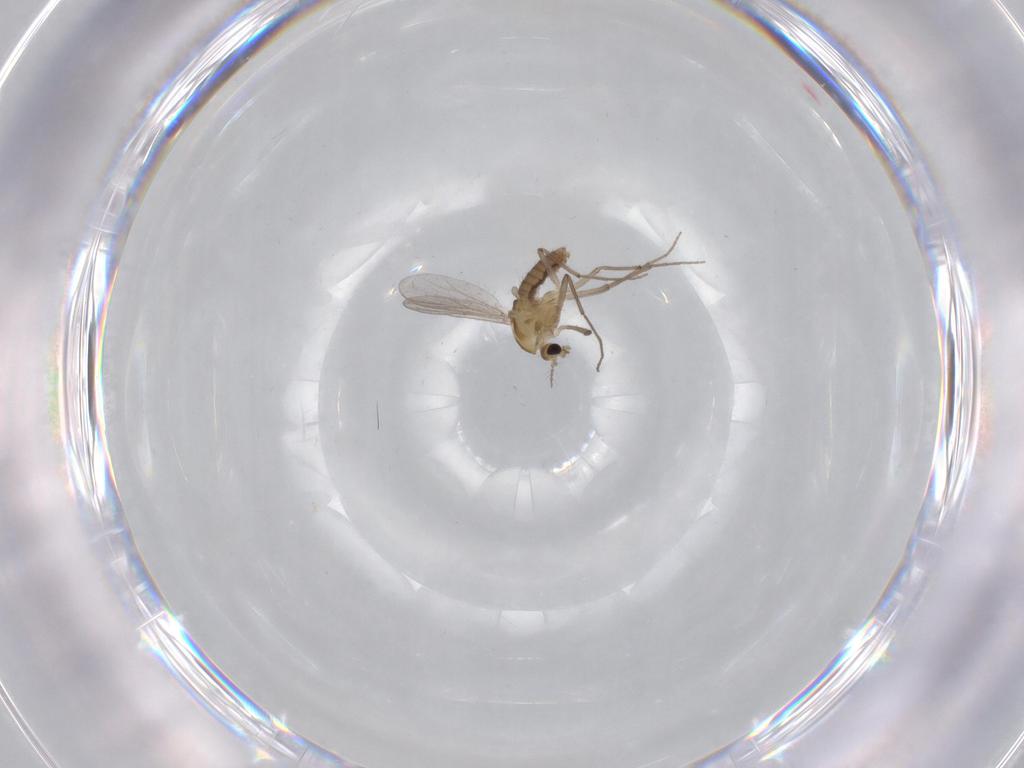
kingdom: Animalia
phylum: Arthropoda
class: Insecta
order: Diptera
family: Chironomidae
